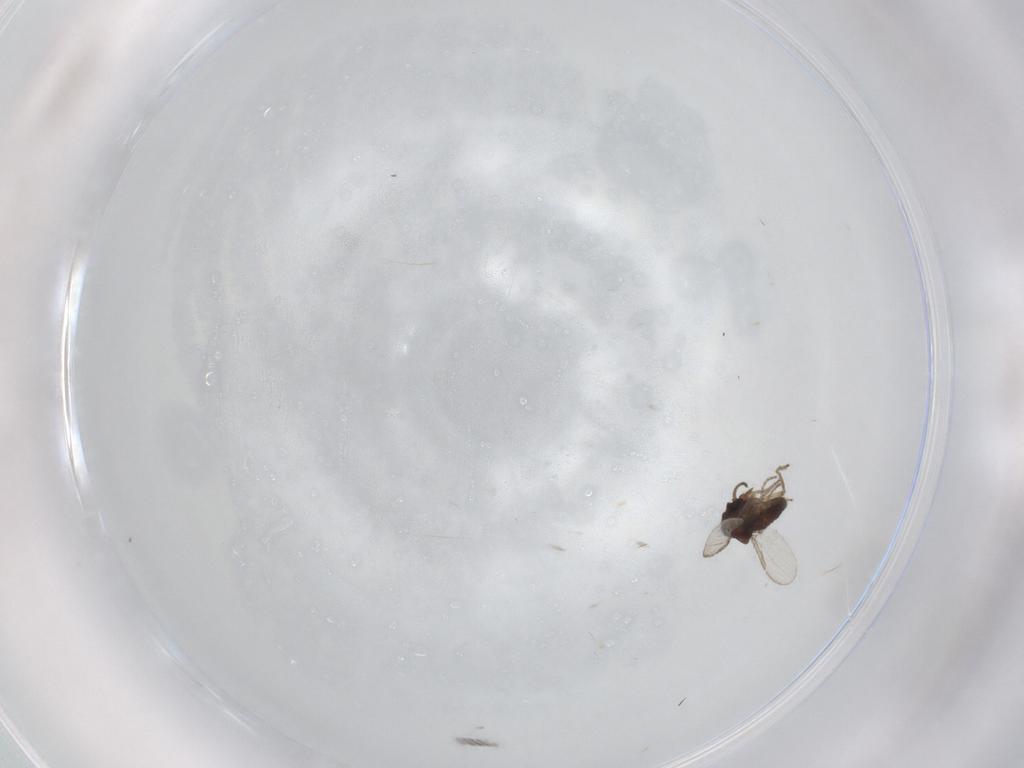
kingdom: Animalia
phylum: Arthropoda
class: Insecta
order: Diptera
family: Ceratopogonidae
